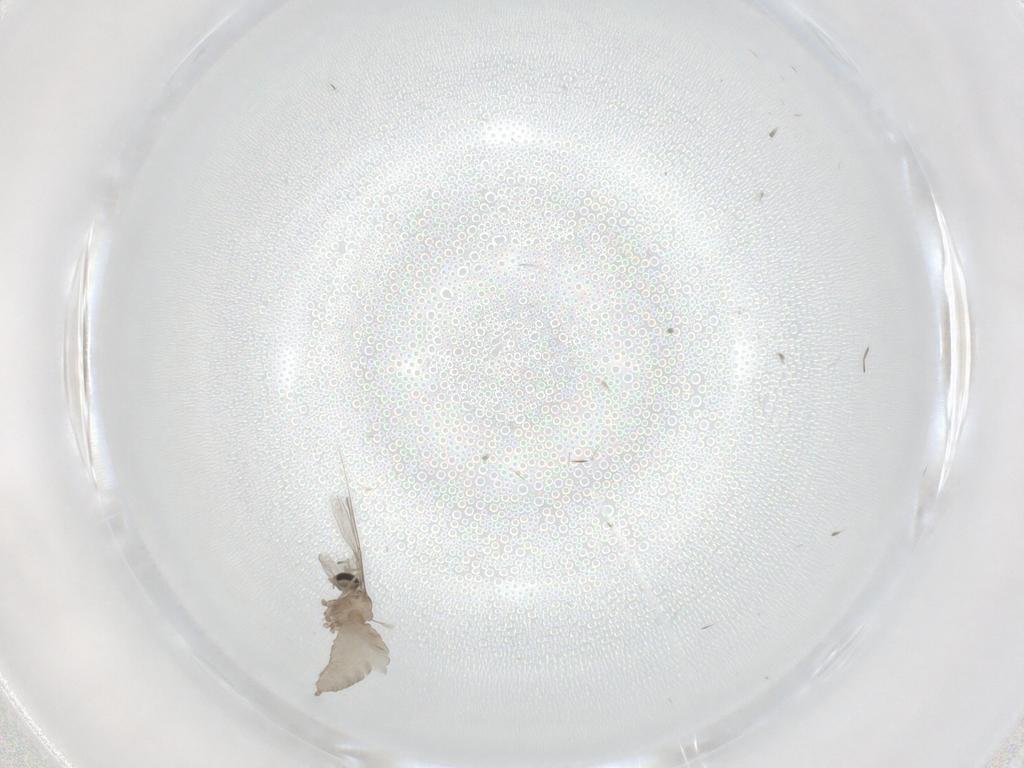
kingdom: Animalia
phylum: Arthropoda
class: Insecta
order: Diptera
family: Cecidomyiidae
